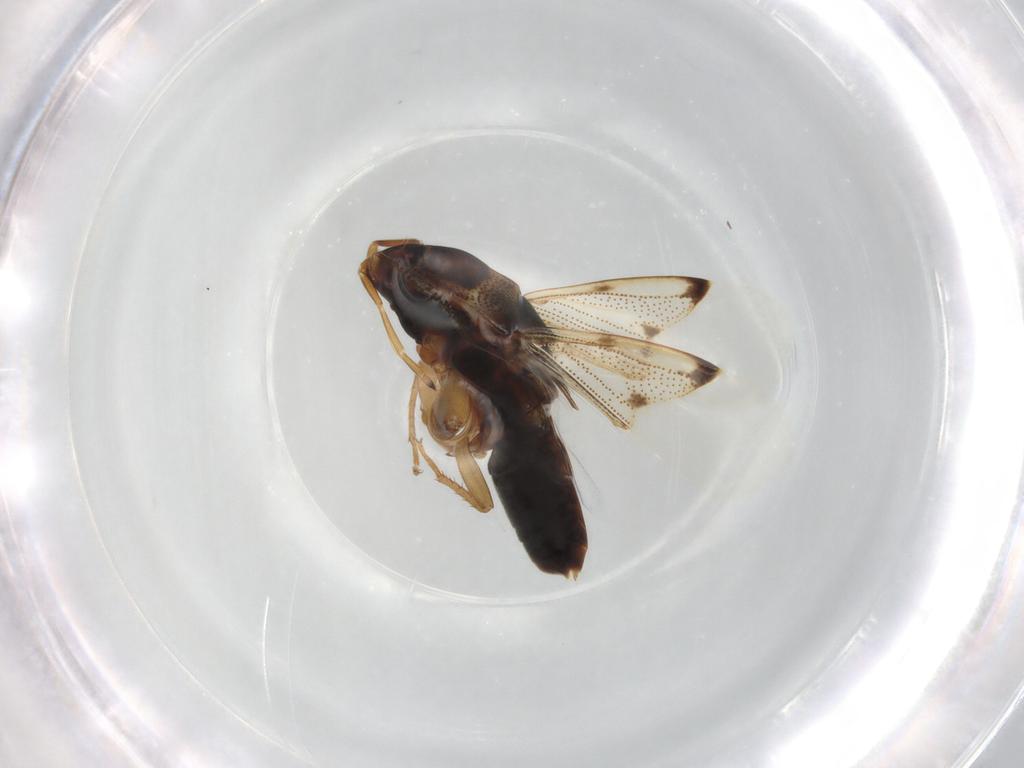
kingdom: Animalia
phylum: Arthropoda
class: Insecta
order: Hemiptera
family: Rhyparochromidae
